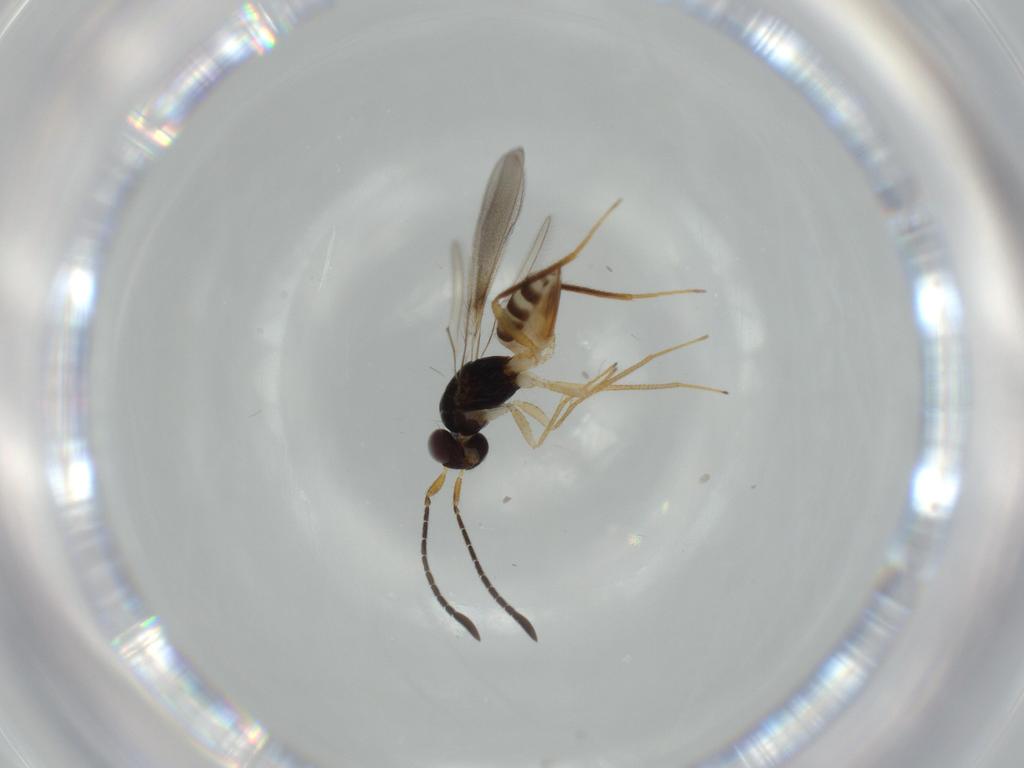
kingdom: Animalia
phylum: Arthropoda
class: Insecta
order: Hymenoptera
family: Mymaridae
